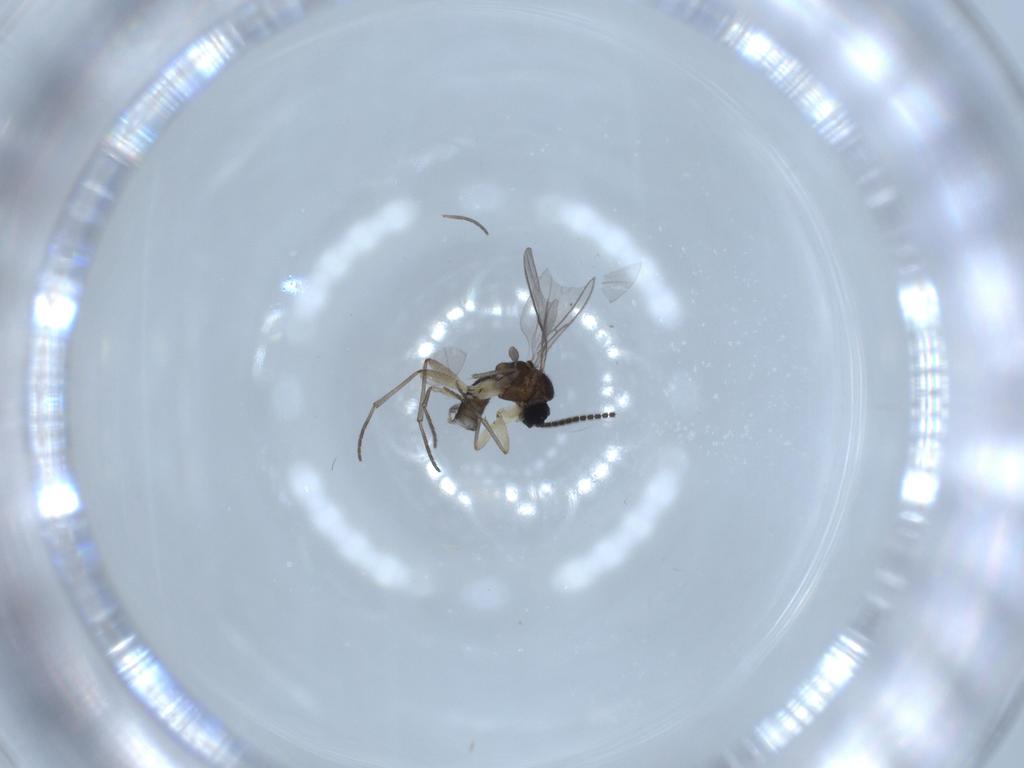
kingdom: Animalia
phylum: Arthropoda
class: Insecta
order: Diptera
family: Sciaridae
